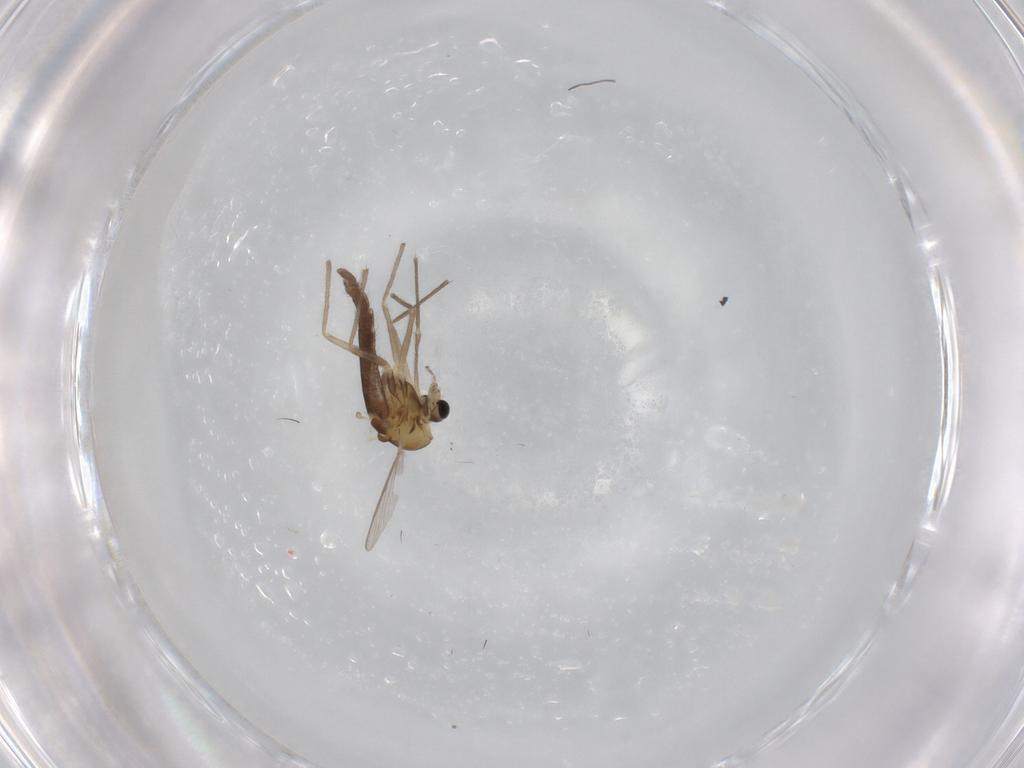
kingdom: Animalia
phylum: Arthropoda
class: Insecta
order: Diptera
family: Chironomidae
